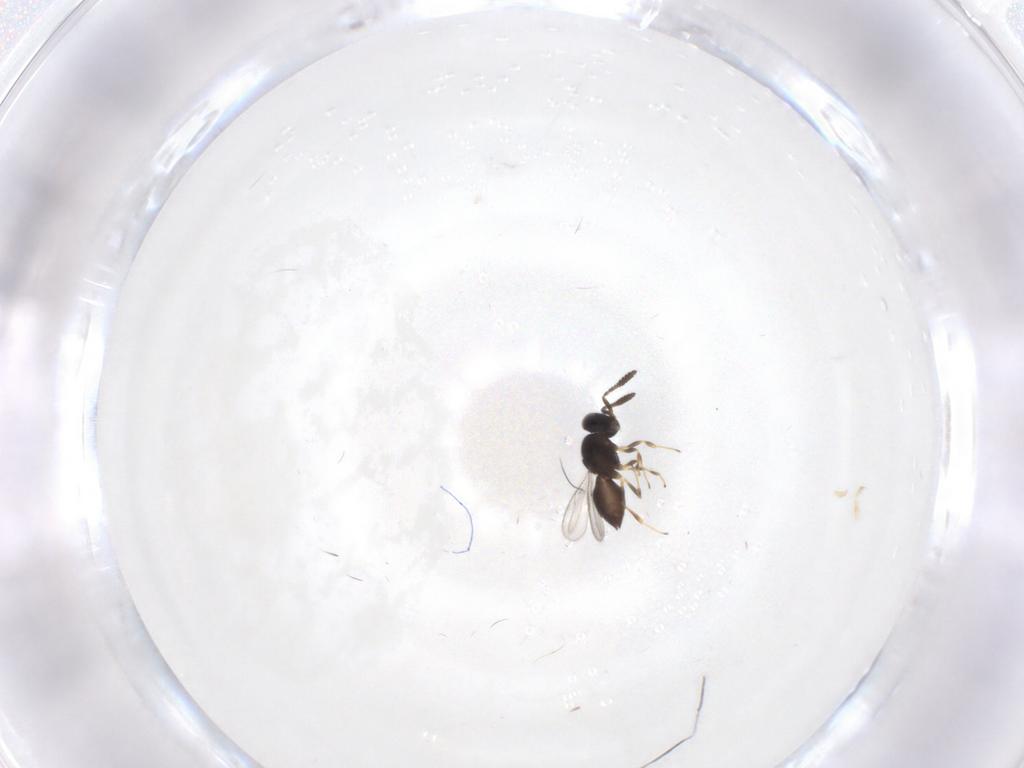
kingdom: Animalia
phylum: Arthropoda
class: Insecta
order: Hymenoptera
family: Scelionidae
